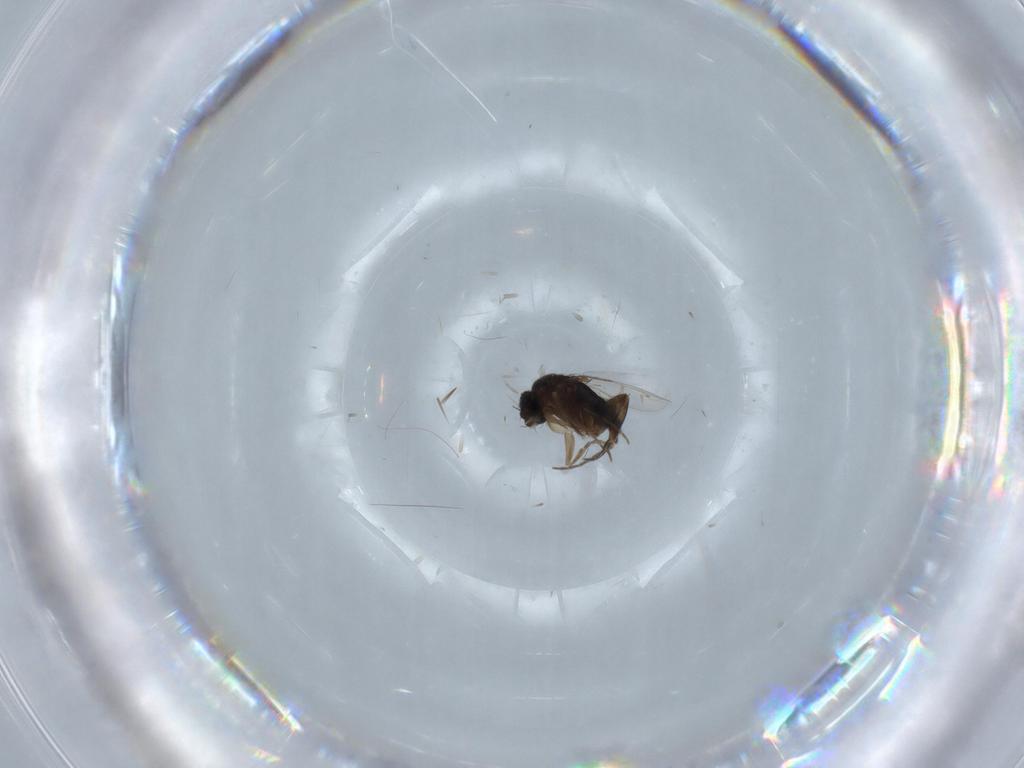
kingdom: Animalia
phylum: Arthropoda
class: Insecta
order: Diptera
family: Phoridae
